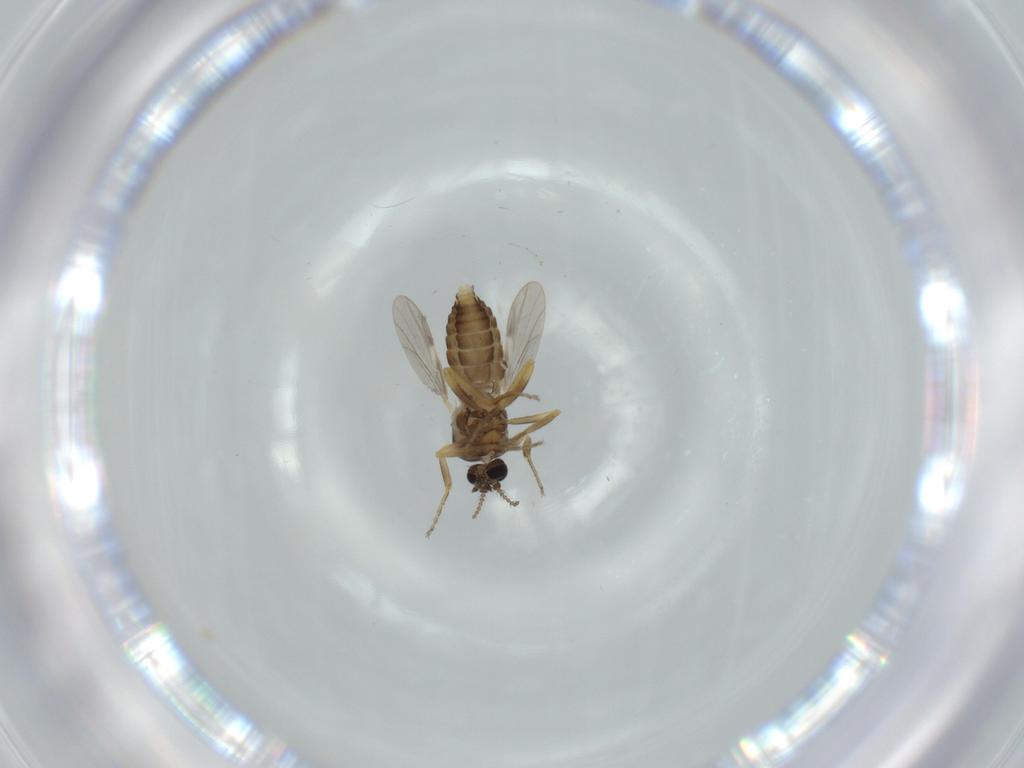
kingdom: Animalia
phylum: Arthropoda
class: Insecta
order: Diptera
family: Ceratopogonidae
